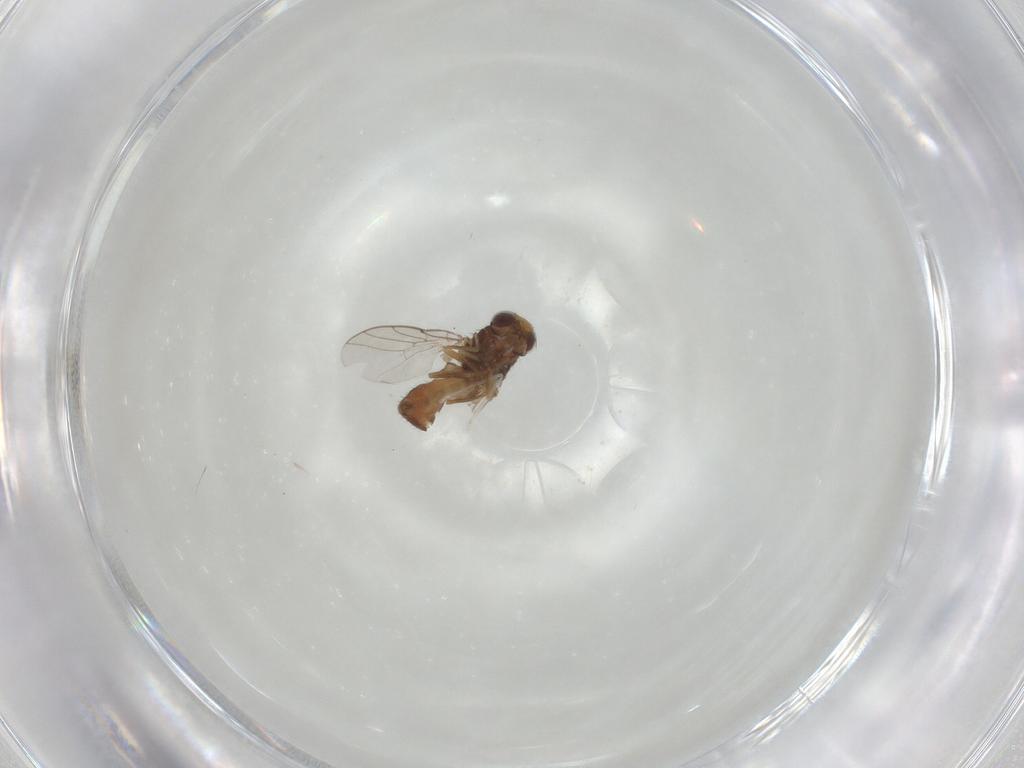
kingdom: Animalia
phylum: Arthropoda
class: Insecta
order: Diptera
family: Chloropidae
